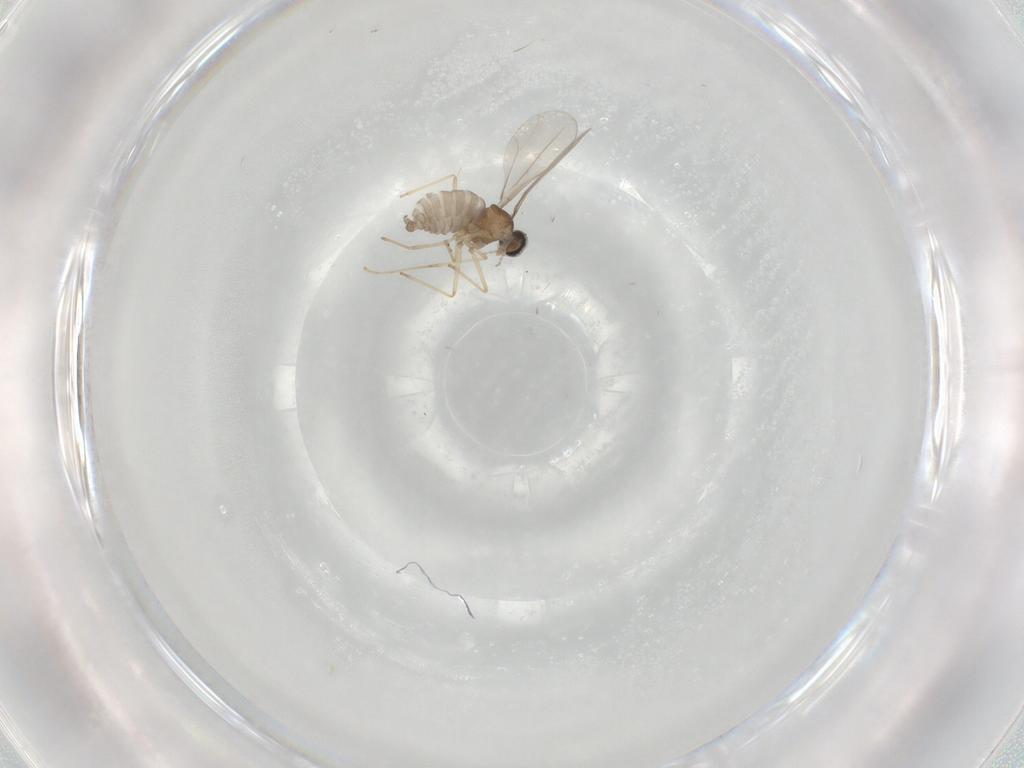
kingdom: Animalia
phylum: Arthropoda
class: Insecta
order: Diptera
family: Cecidomyiidae
